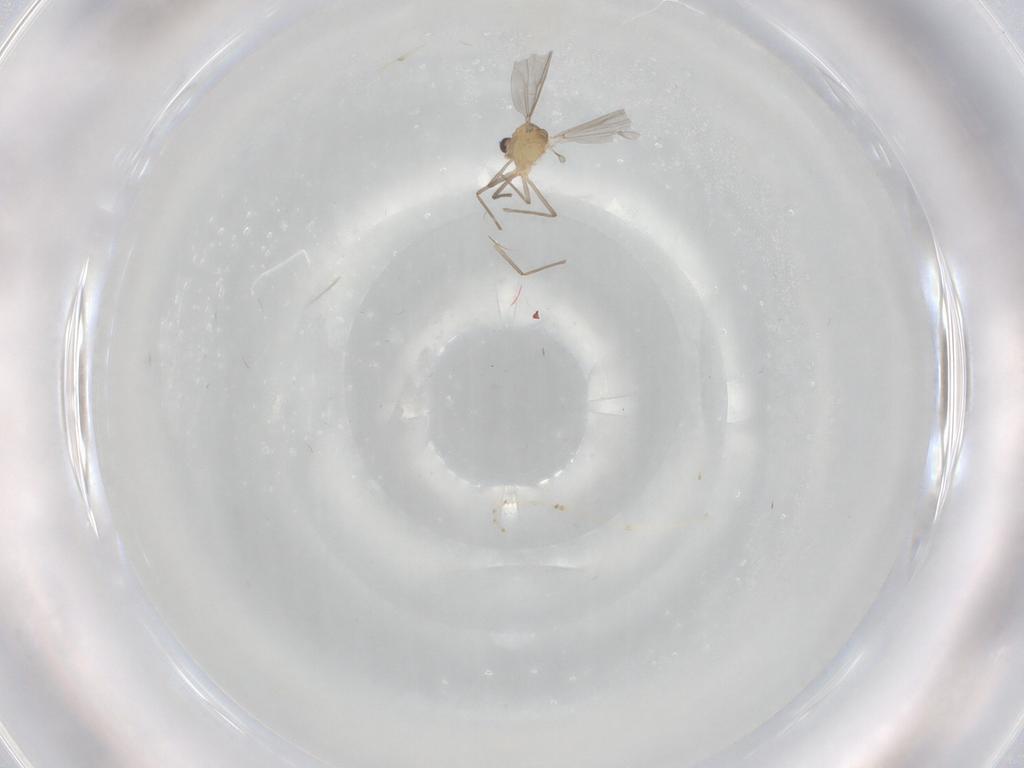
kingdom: Animalia
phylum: Arthropoda
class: Insecta
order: Diptera
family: Chironomidae
